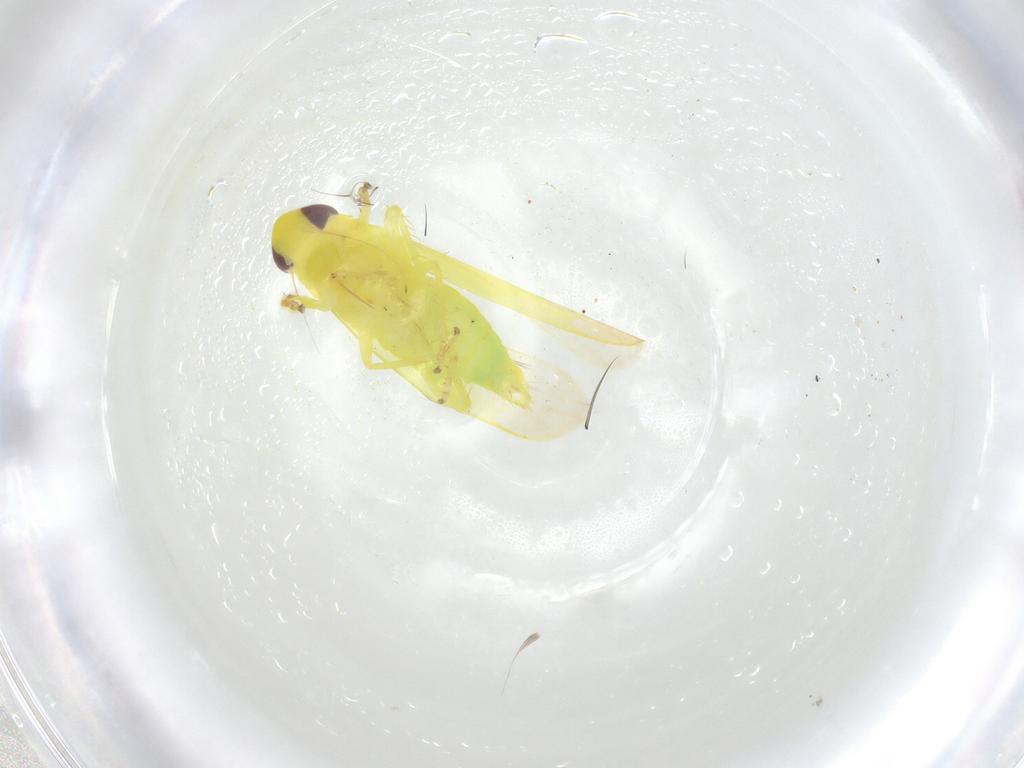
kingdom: Animalia
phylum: Arthropoda
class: Insecta
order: Hemiptera
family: Cicadellidae
